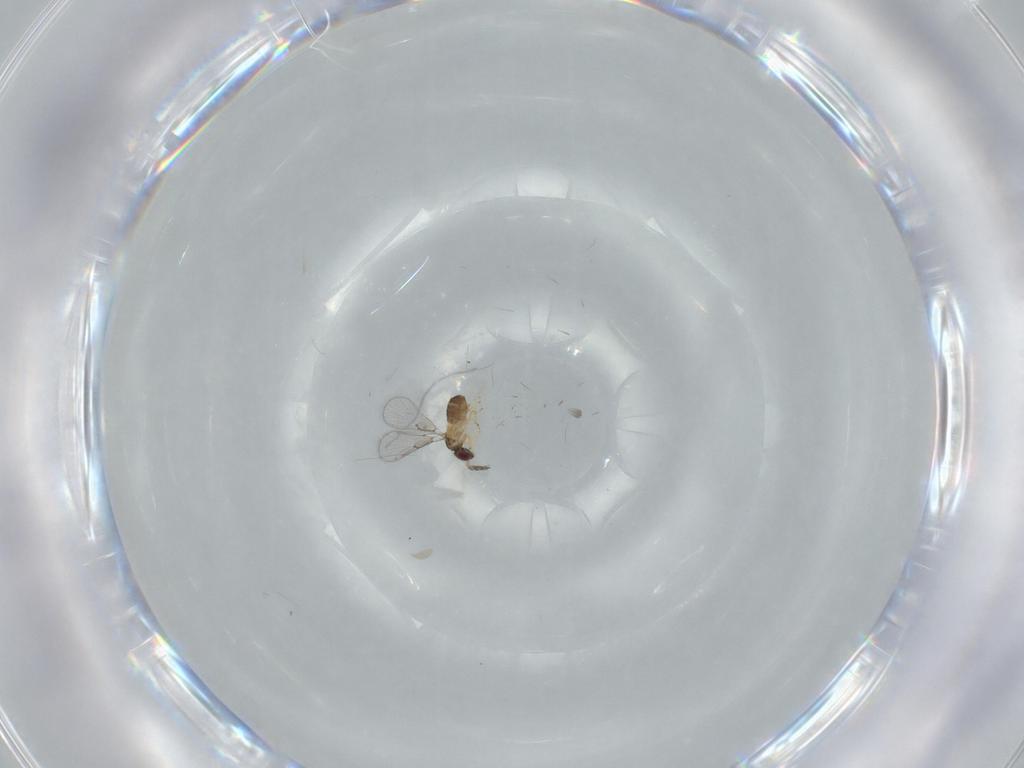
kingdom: Animalia
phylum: Arthropoda
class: Insecta
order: Hymenoptera
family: Trichogrammatidae
